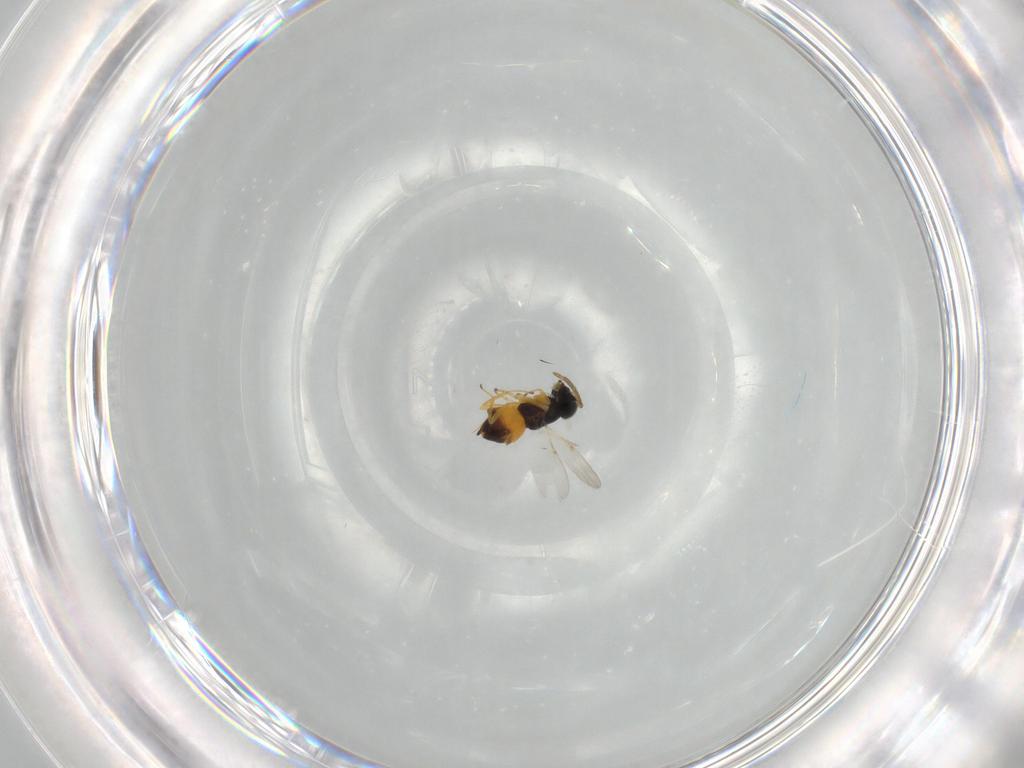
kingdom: Animalia
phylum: Arthropoda
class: Insecta
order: Hymenoptera
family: Encyrtidae
